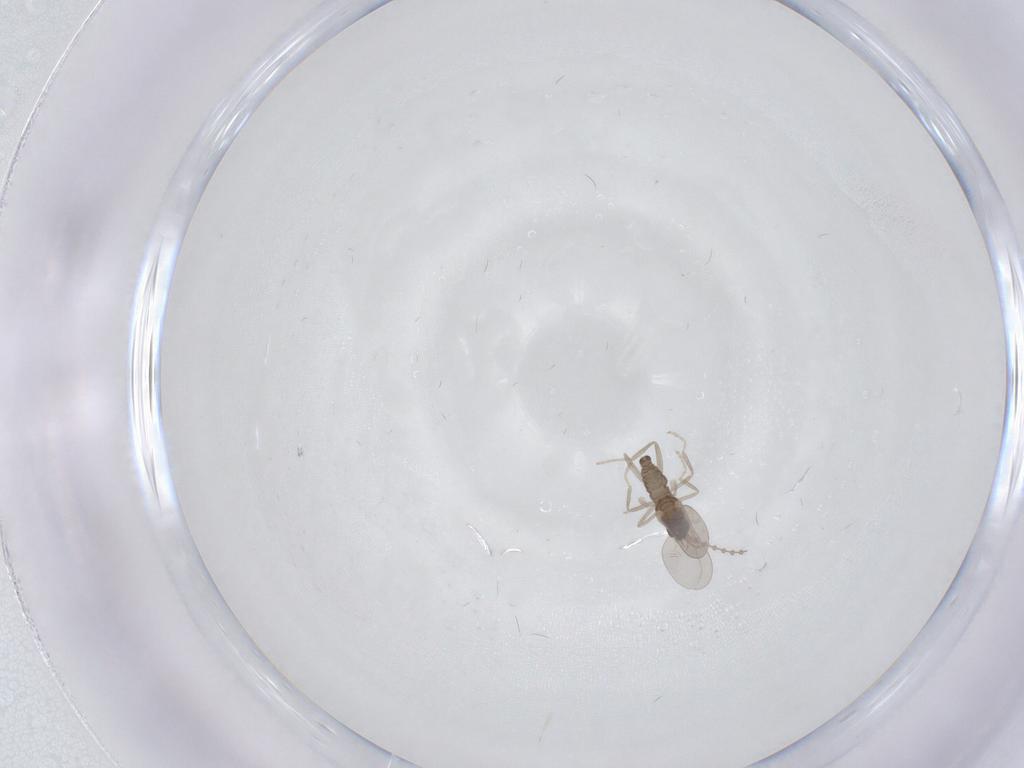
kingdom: Animalia
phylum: Arthropoda
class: Insecta
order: Diptera
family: Cecidomyiidae
